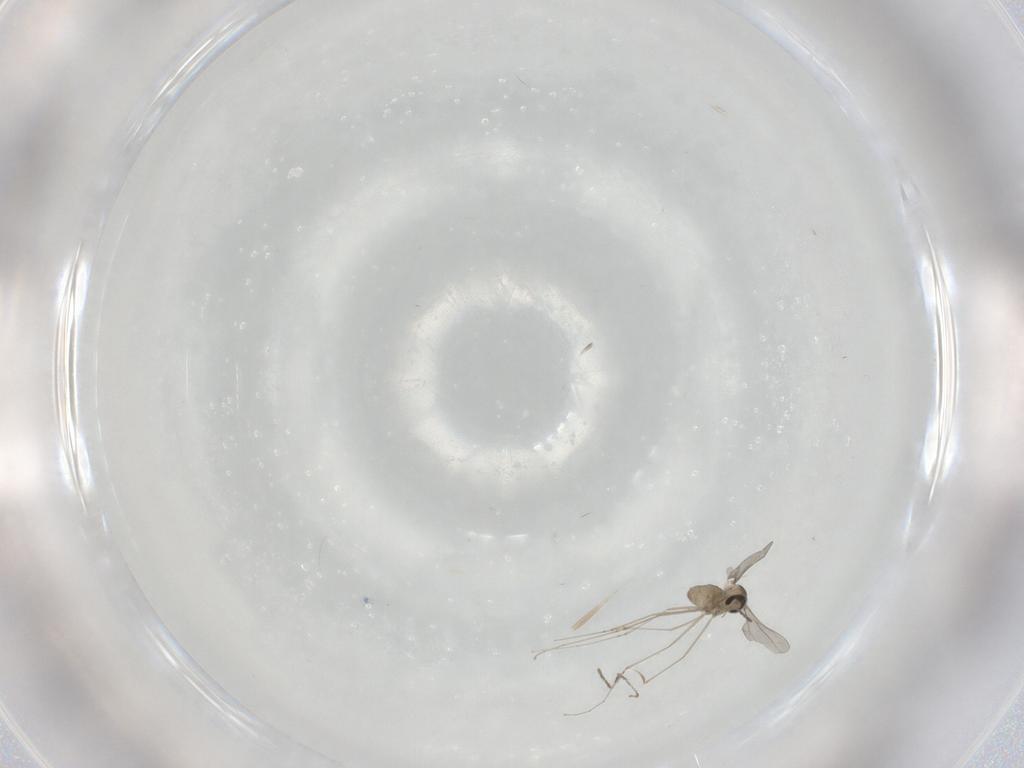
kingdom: Animalia
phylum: Arthropoda
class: Insecta
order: Diptera
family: Cecidomyiidae
